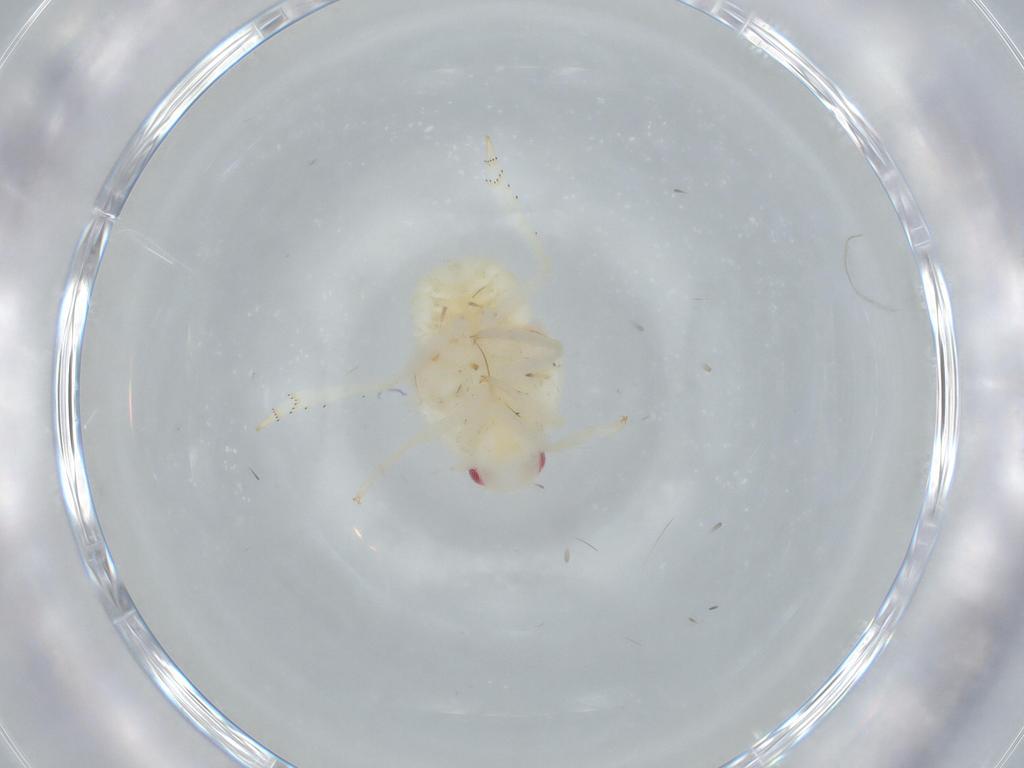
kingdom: Animalia
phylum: Arthropoda
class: Insecta
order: Hemiptera
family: Flatidae
